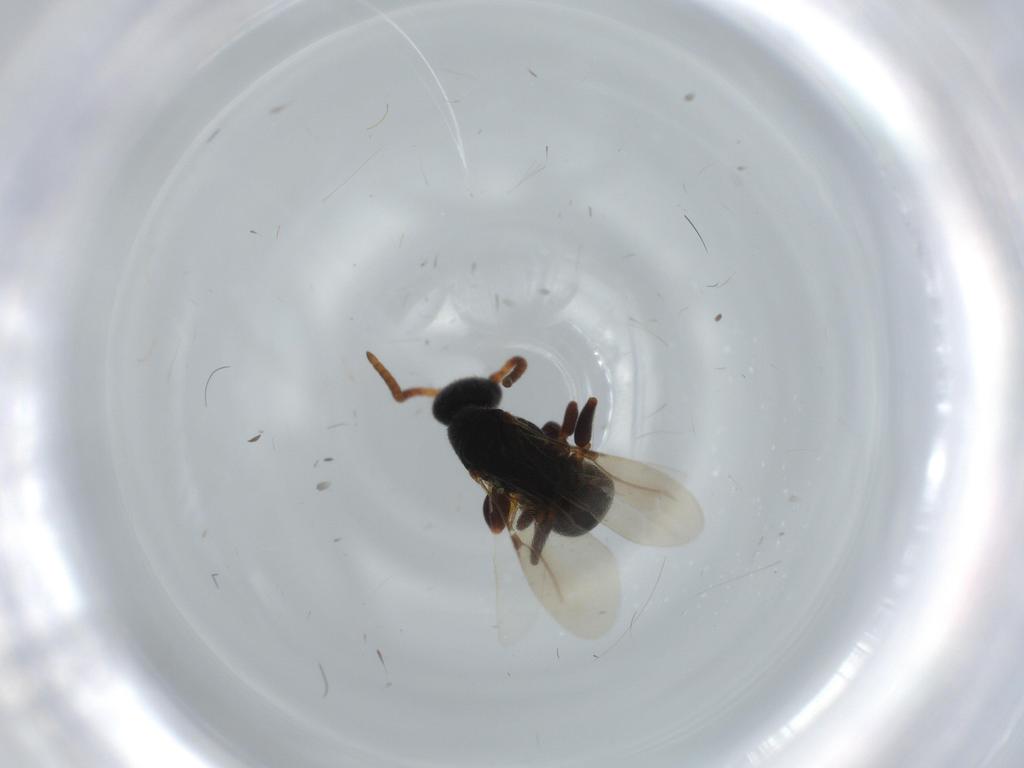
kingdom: Animalia
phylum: Arthropoda
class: Insecta
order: Hymenoptera
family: Bethylidae
